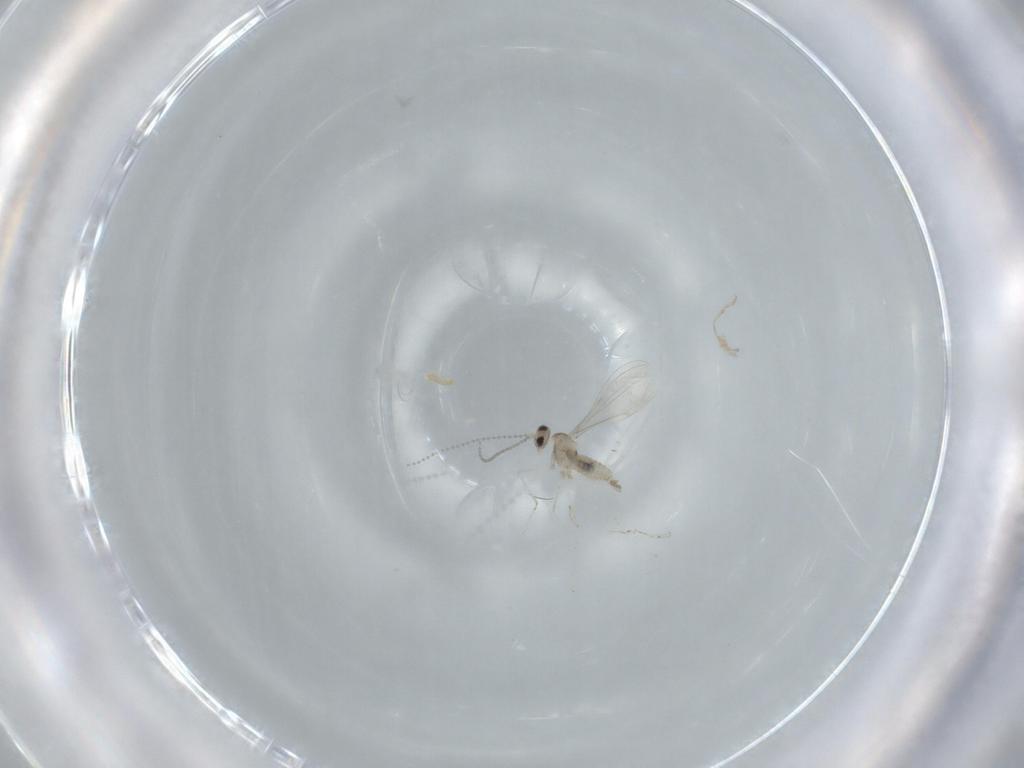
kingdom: Animalia
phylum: Arthropoda
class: Insecta
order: Diptera
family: Cecidomyiidae
